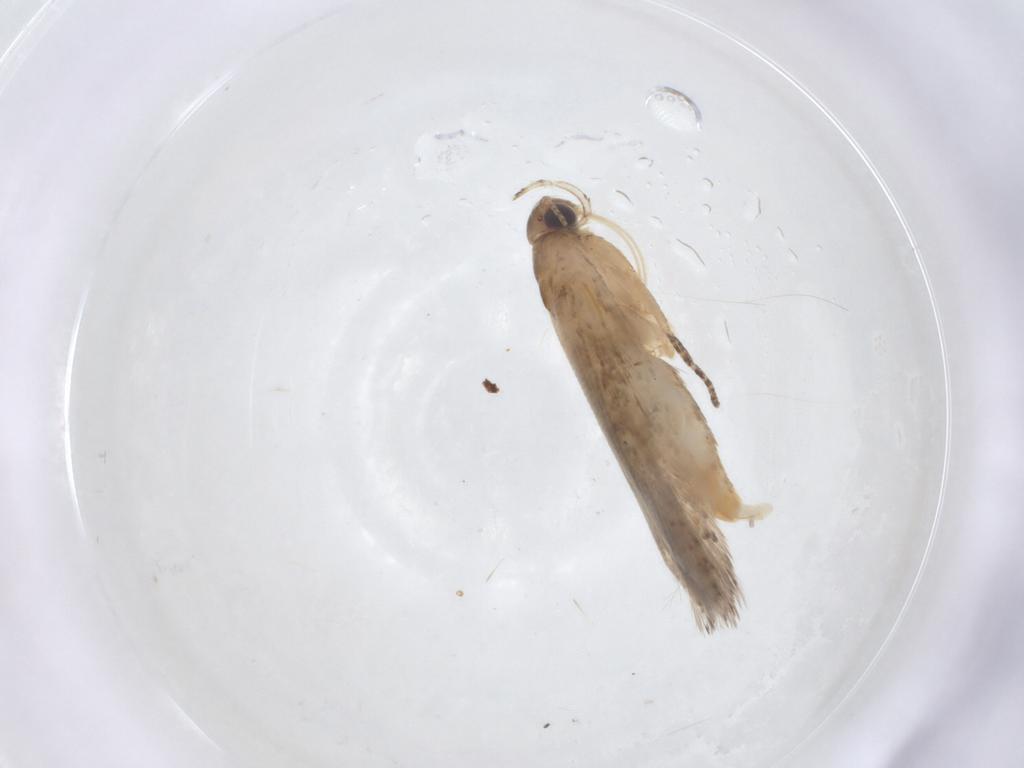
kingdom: Animalia
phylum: Arthropoda
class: Insecta
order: Lepidoptera
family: Gelechiidae
